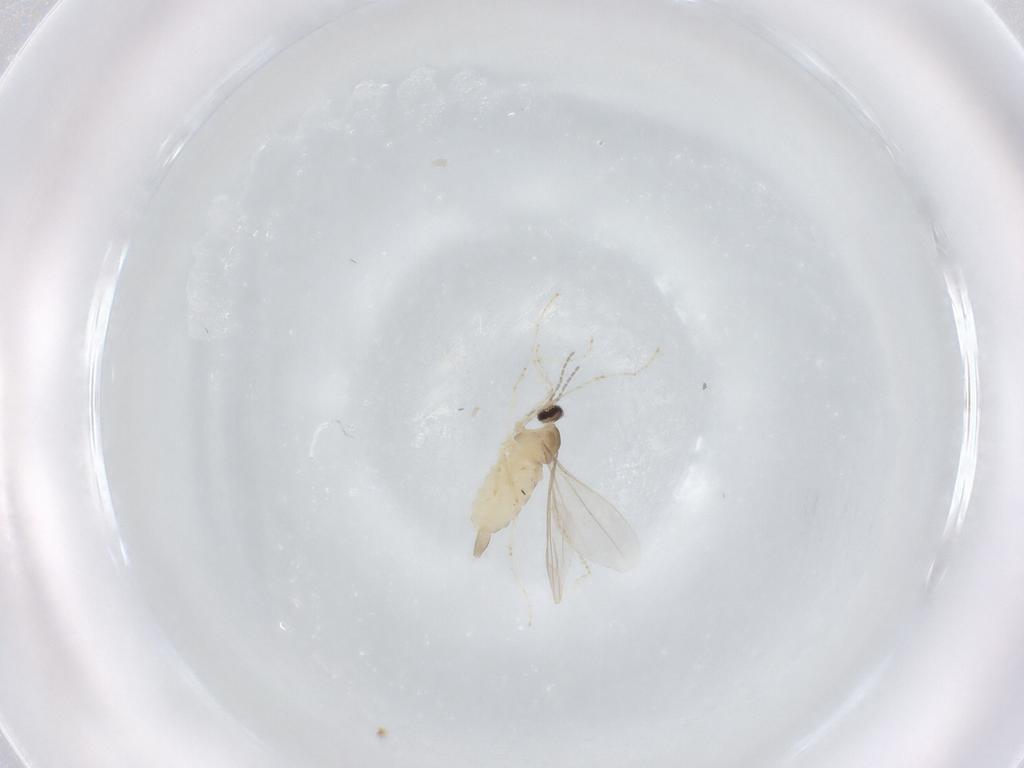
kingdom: Animalia
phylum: Arthropoda
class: Insecta
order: Diptera
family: Cecidomyiidae
